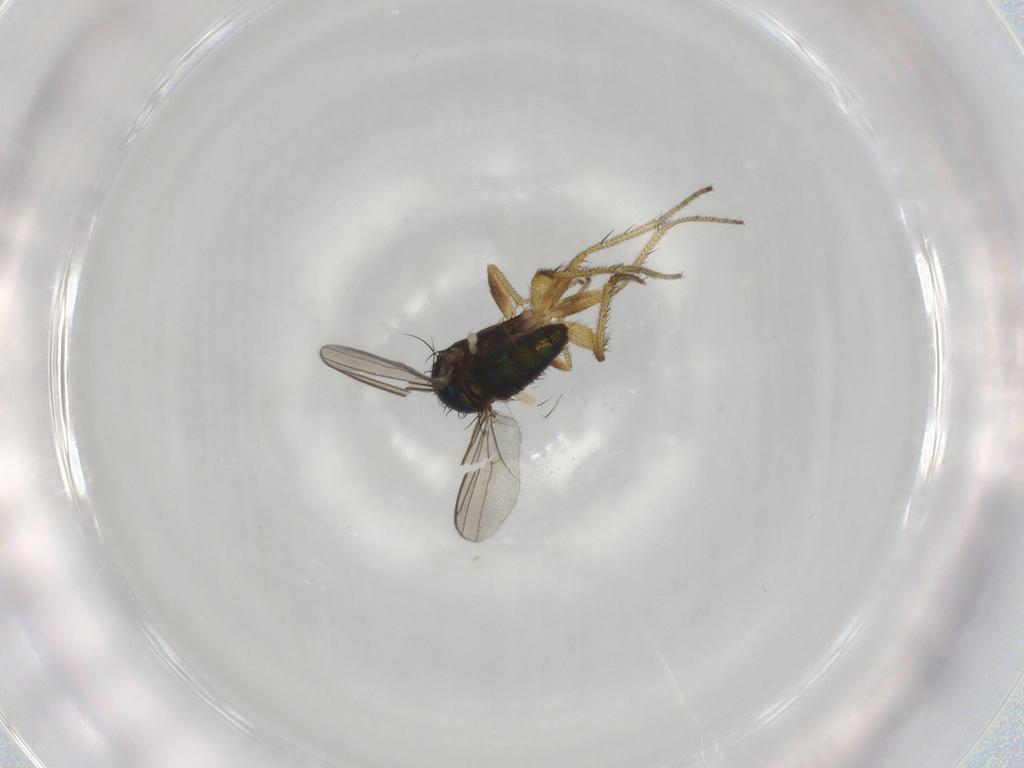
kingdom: Animalia
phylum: Arthropoda
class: Insecta
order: Diptera
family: Dolichopodidae
